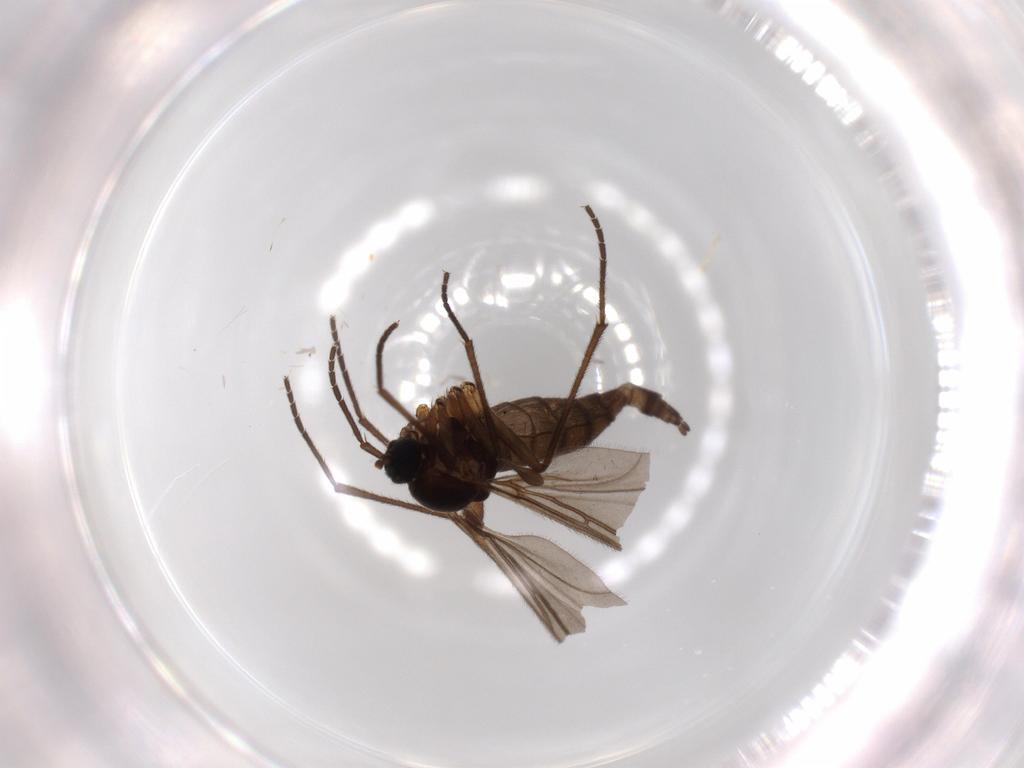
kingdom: Animalia
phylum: Arthropoda
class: Insecta
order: Diptera
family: Sciaridae
